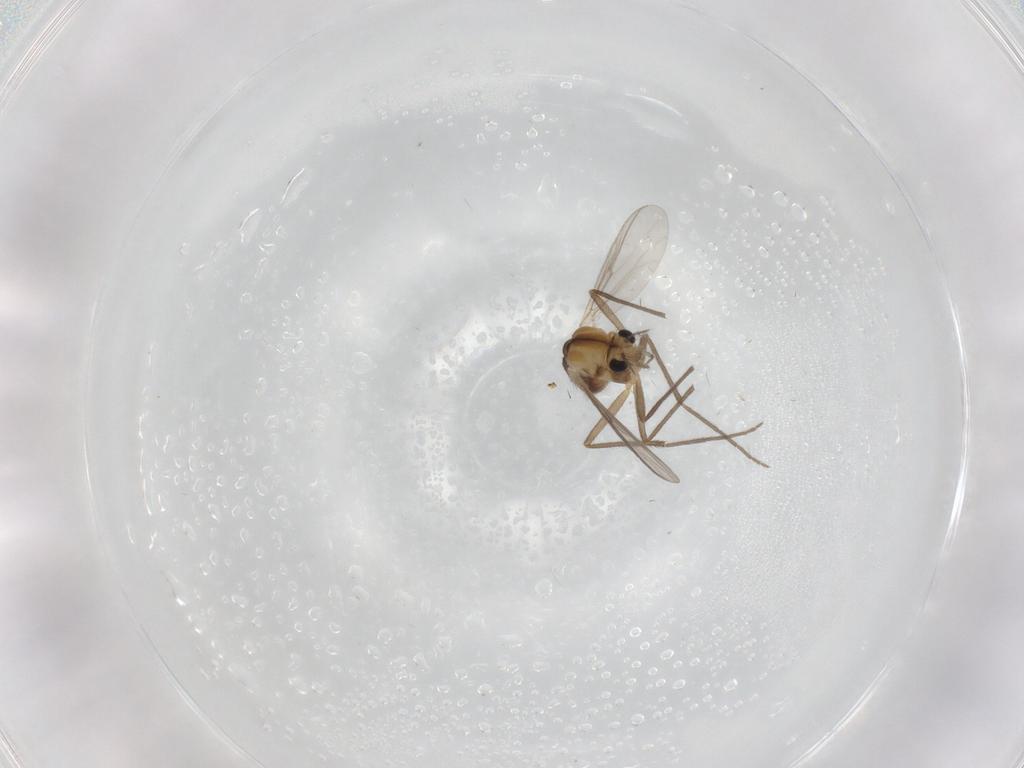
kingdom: Animalia
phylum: Arthropoda
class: Insecta
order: Diptera
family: Chironomidae
